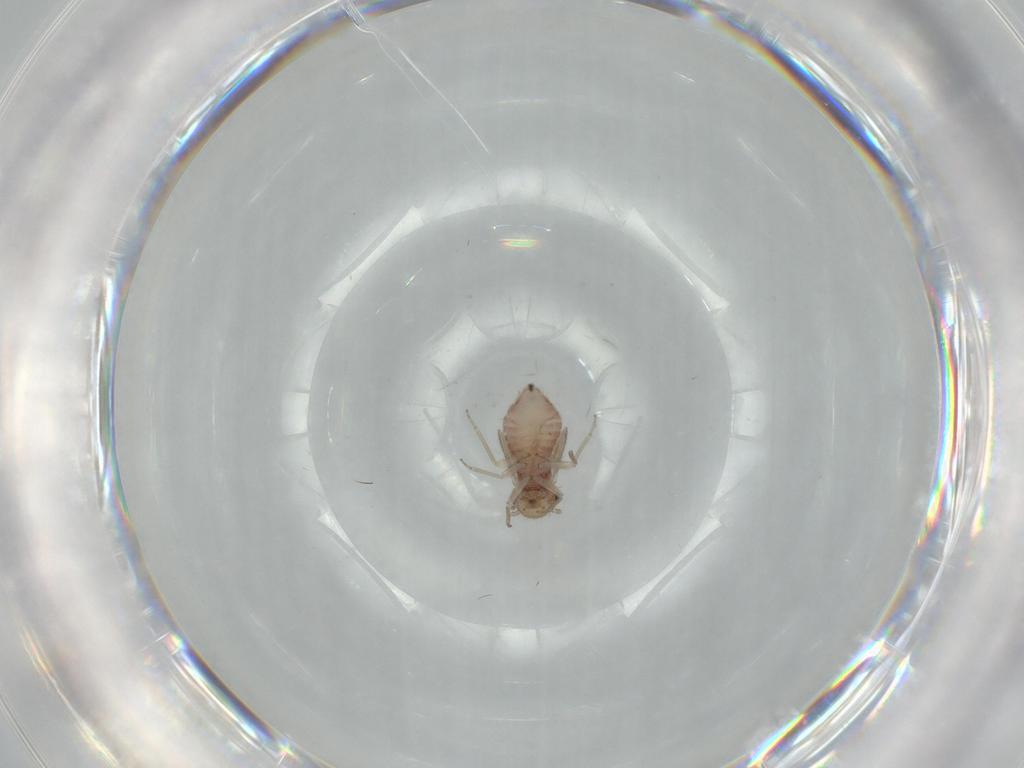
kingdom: Animalia
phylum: Arthropoda
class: Insecta
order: Psocodea
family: Ectopsocidae
